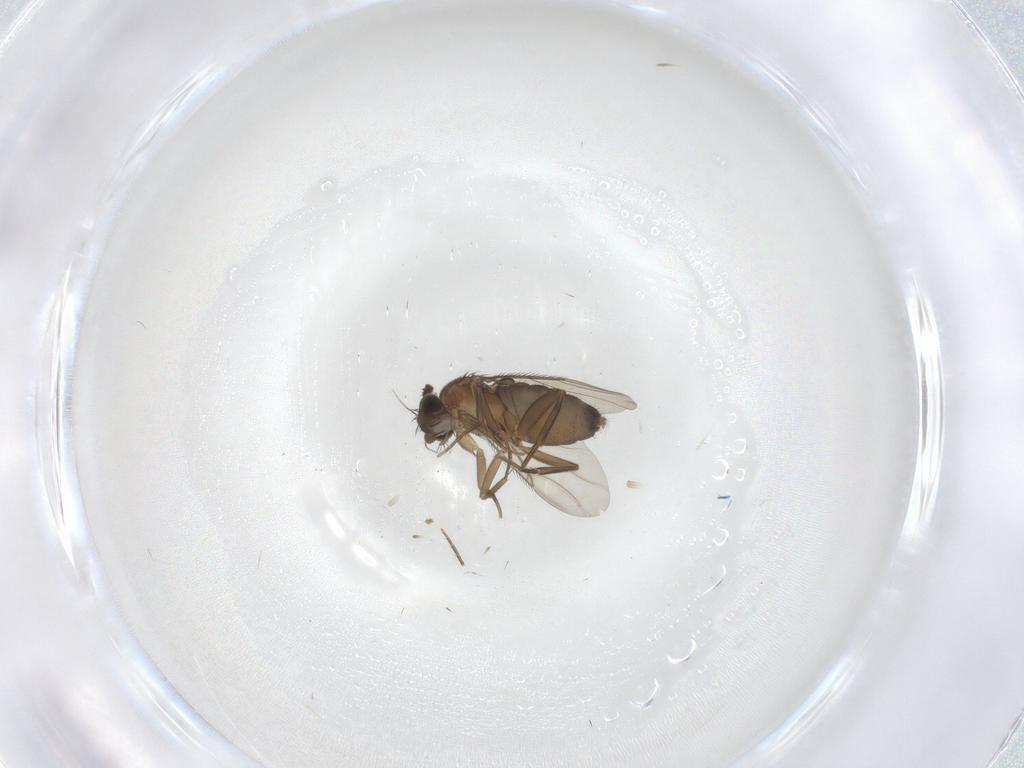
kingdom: Animalia
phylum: Arthropoda
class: Insecta
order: Diptera
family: Phoridae
